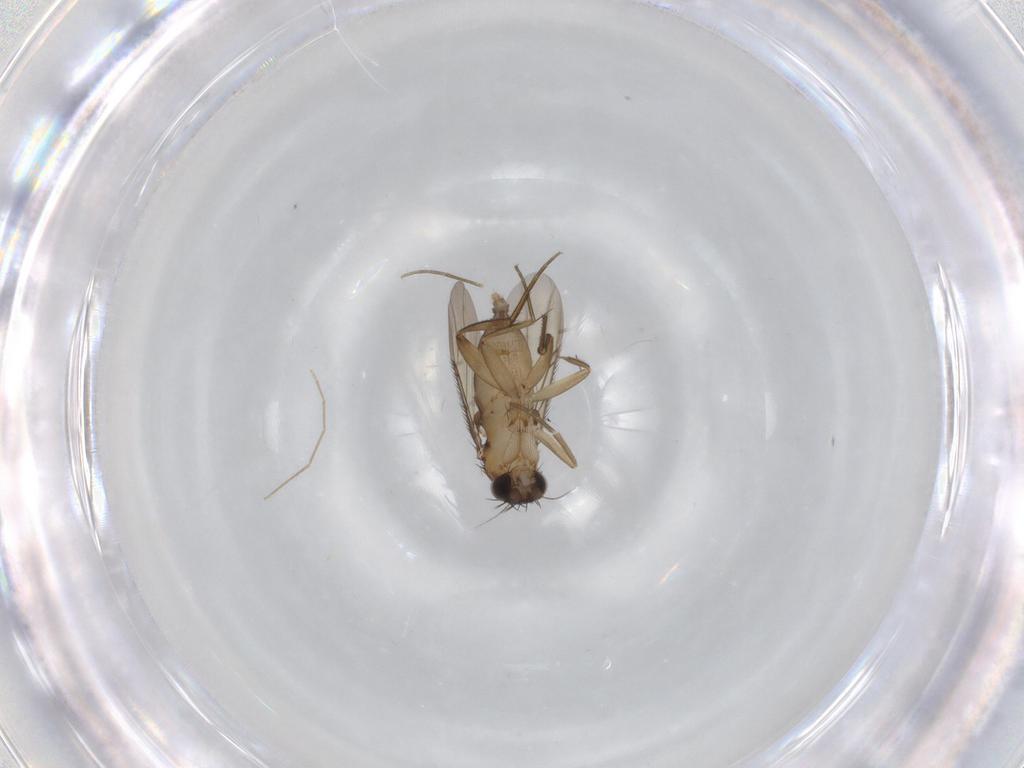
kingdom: Animalia
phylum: Arthropoda
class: Insecta
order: Diptera
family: Phoridae
